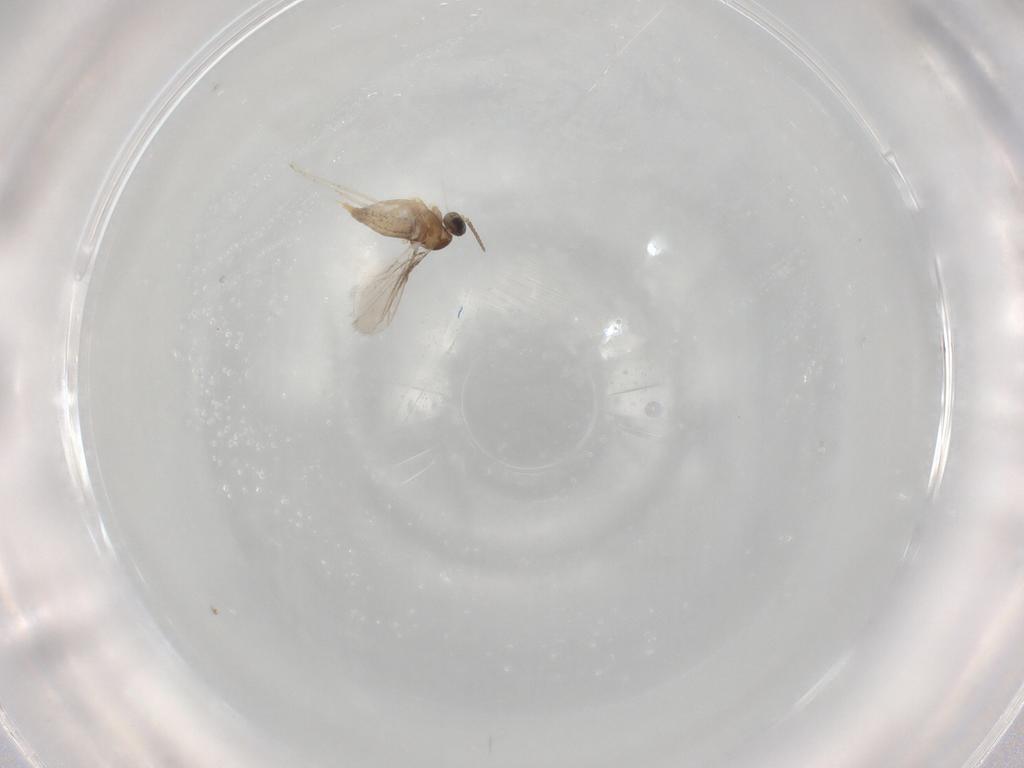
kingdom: Animalia
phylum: Arthropoda
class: Insecta
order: Diptera
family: Cecidomyiidae
